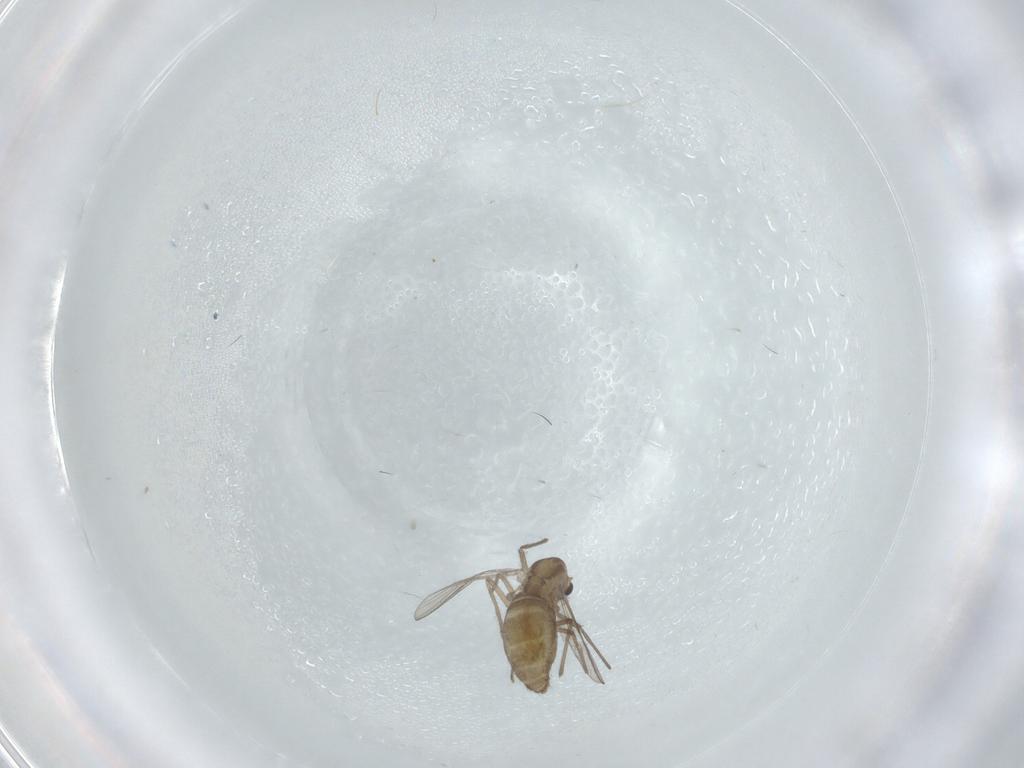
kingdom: Animalia
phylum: Arthropoda
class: Insecta
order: Diptera
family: Chironomidae
